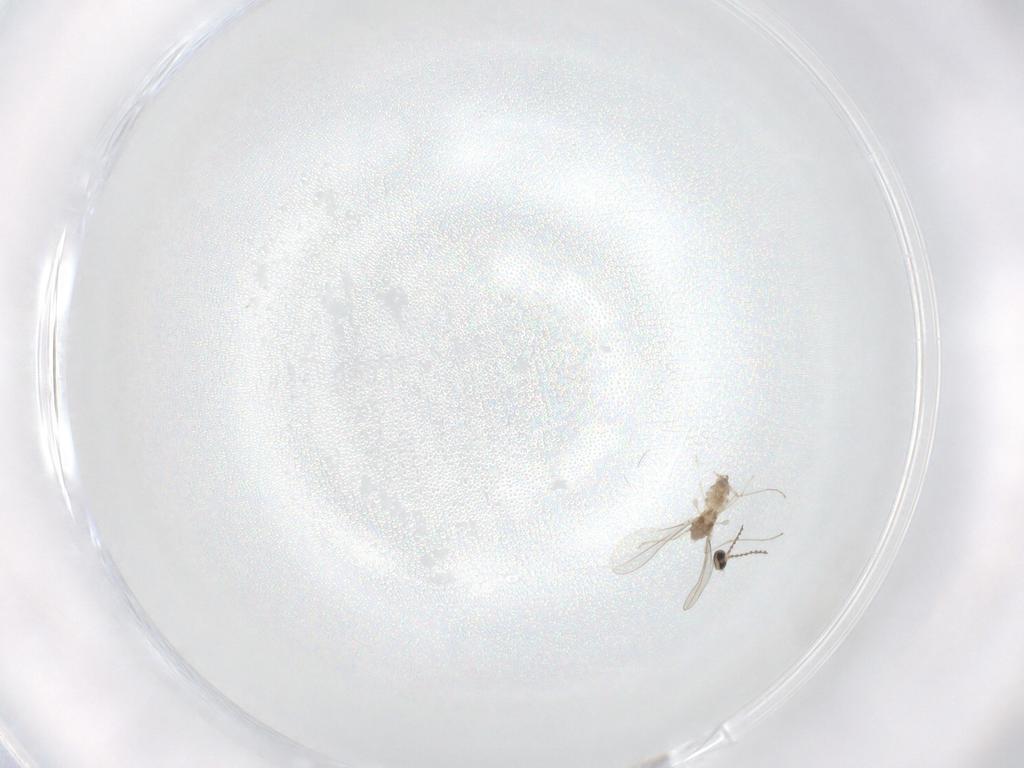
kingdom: Animalia
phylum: Arthropoda
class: Insecta
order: Diptera
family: Cecidomyiidae
